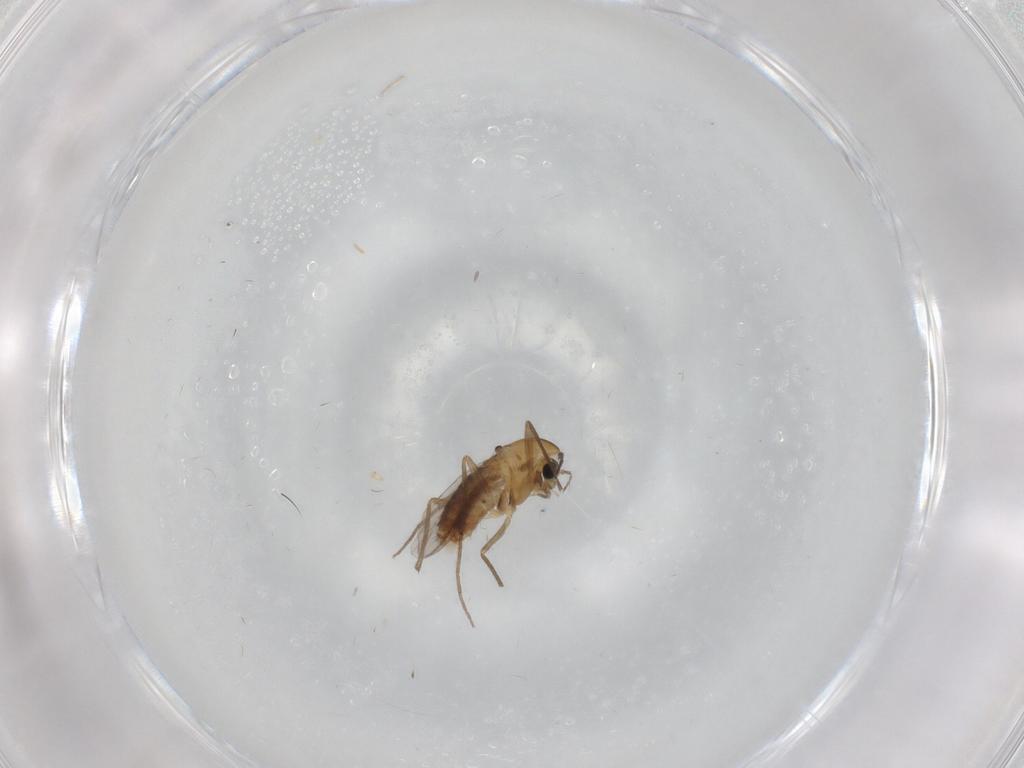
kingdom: Animalia
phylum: Arthropoda
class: Insecta
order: Diptera
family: Chironomidae
